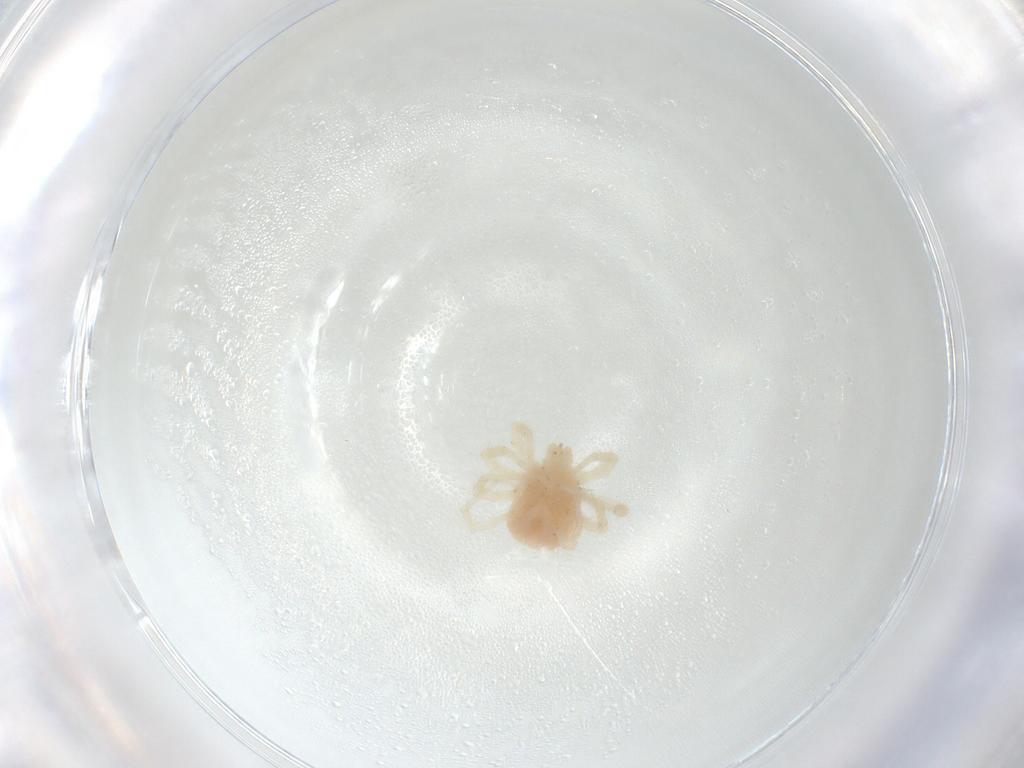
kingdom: Animalia
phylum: Arthropoda
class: Arachnida
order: Trombidiformes
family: Anystidae
